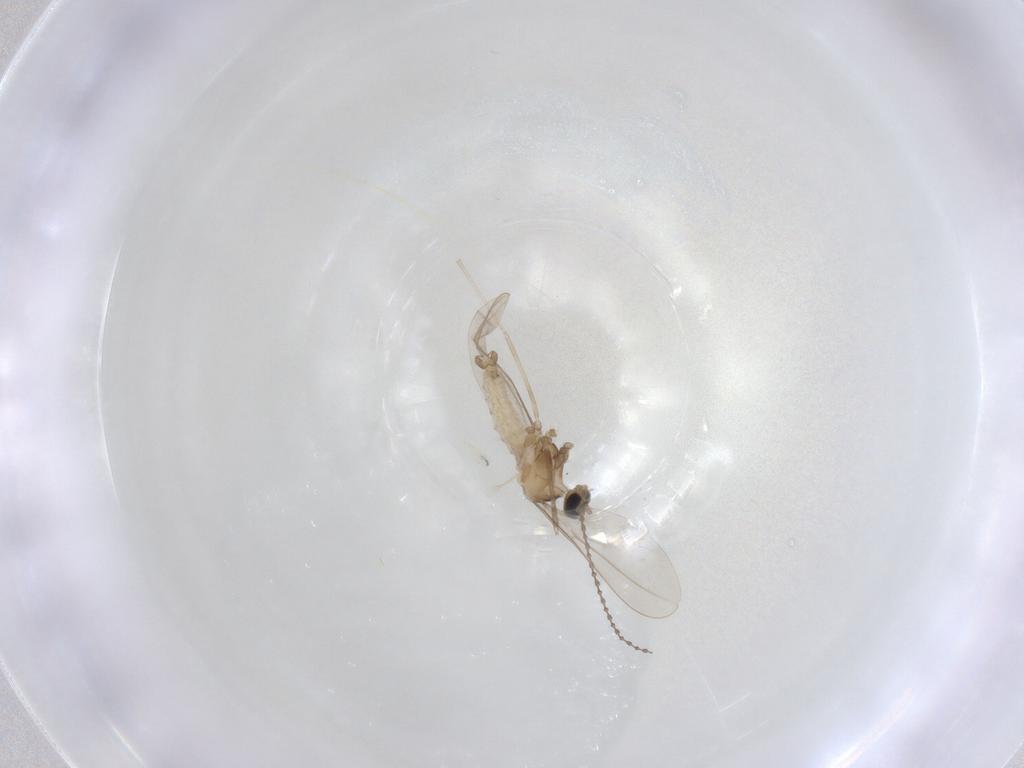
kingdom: Animalia
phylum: Arthropoda
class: Insecta
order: Diptera
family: Cecidomyiidae
